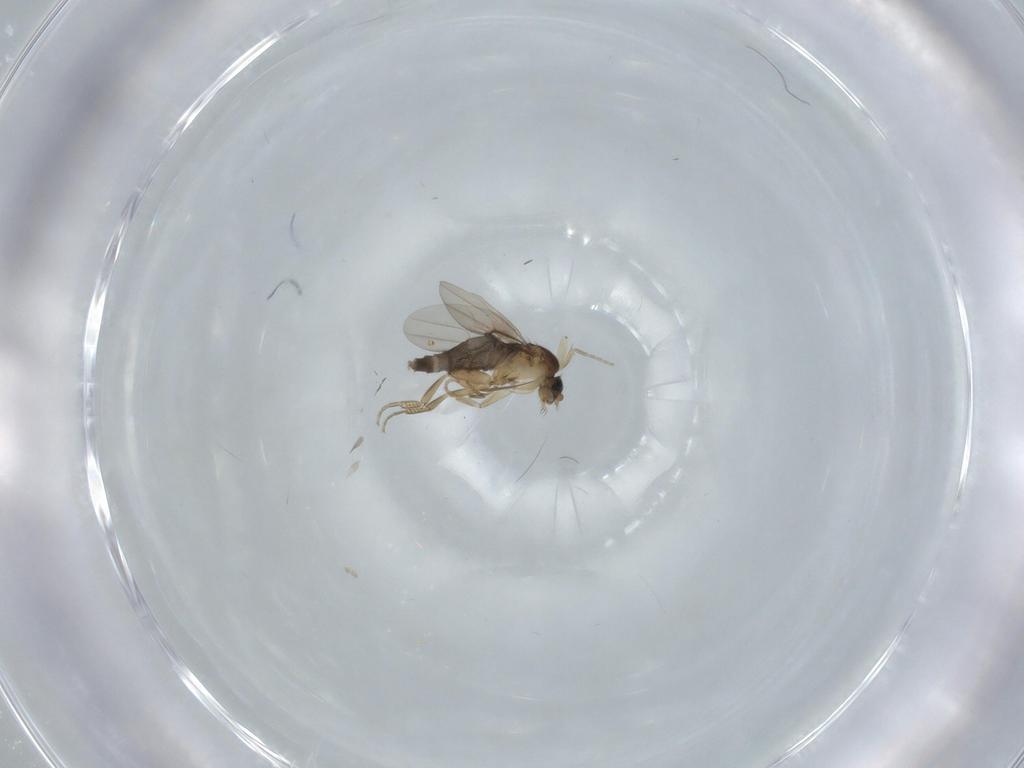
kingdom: Animalia
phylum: Arthropoda
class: Insecta
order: Diptera
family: Phoridae
